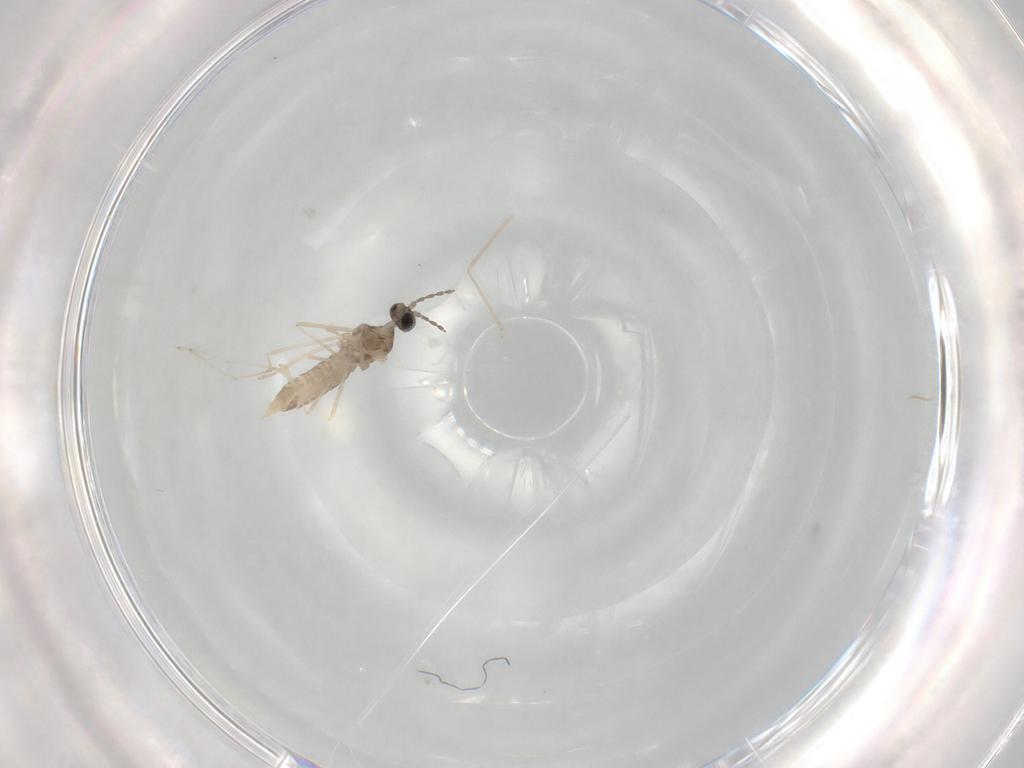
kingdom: Animalia
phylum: Arthropoda
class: Insecta
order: Diptera
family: Cecidomyiidae
